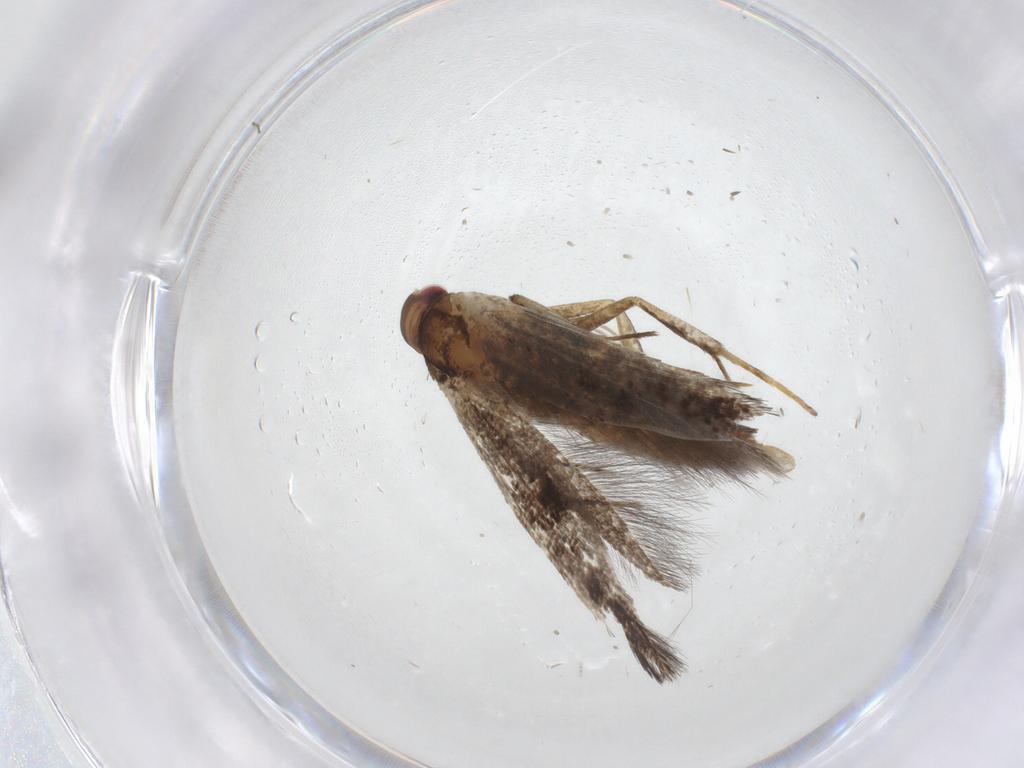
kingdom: Animalia
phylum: Arthropoda
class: Insecta
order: Lepidoptera
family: Gelechiidae
